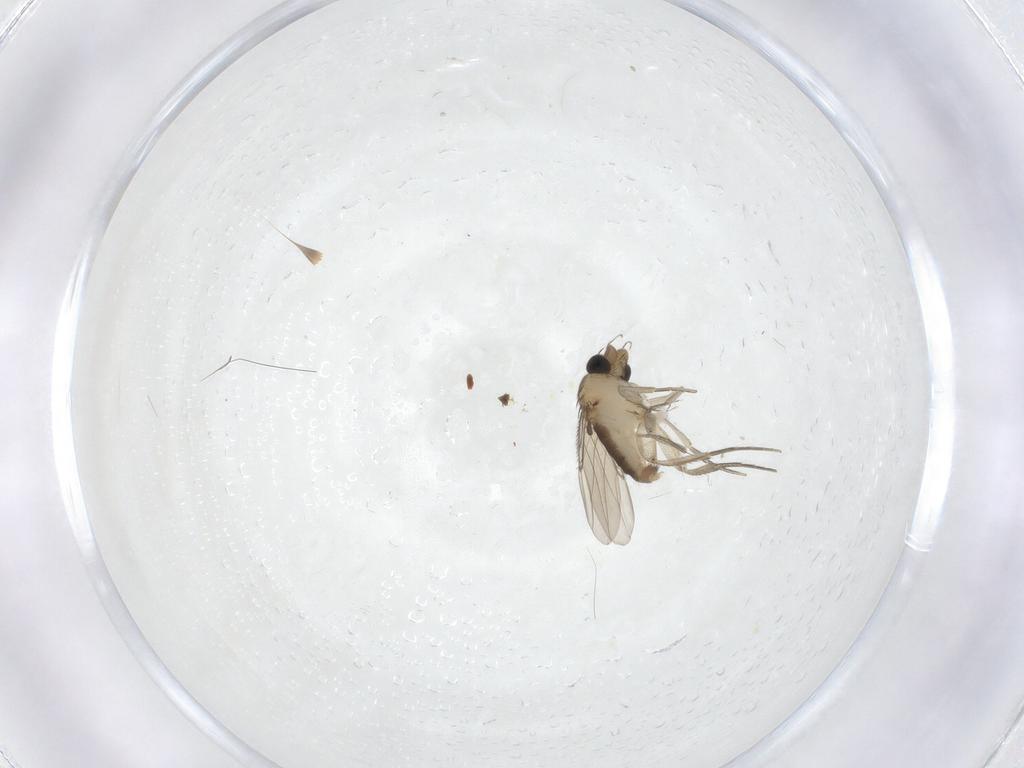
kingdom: Animalia
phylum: Arthropoda
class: Insecta
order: Diptera
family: Phoridae
